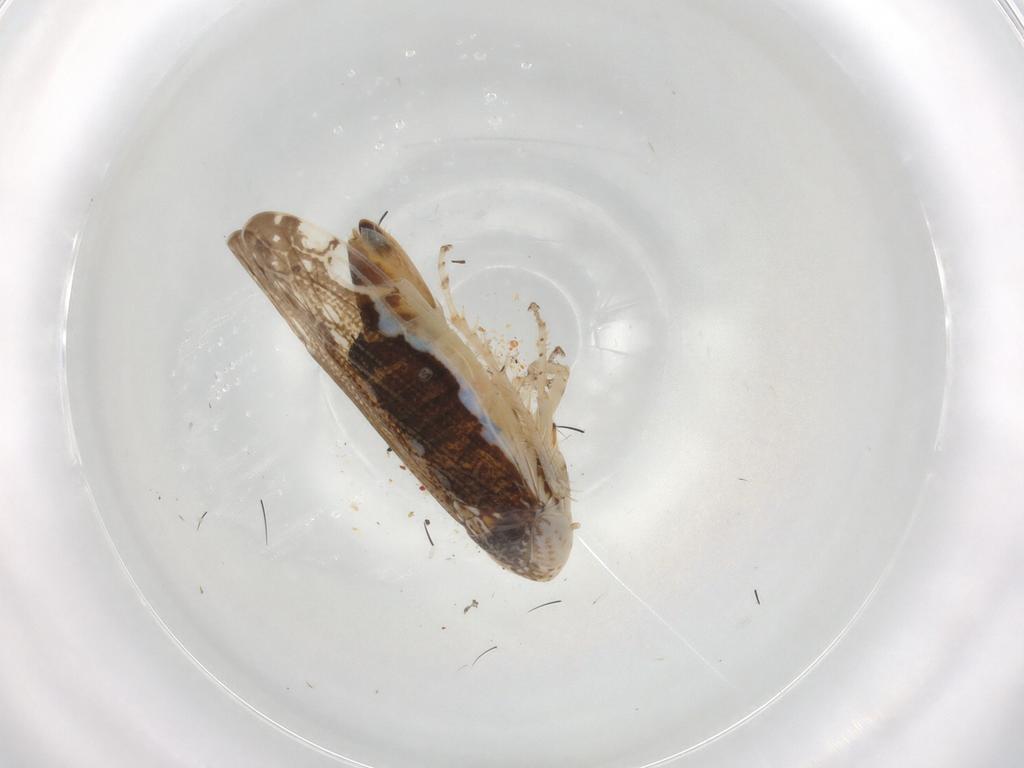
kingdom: Animalia
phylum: Arthropoda
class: Insecta
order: Hemiptera
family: Cicadellidae
